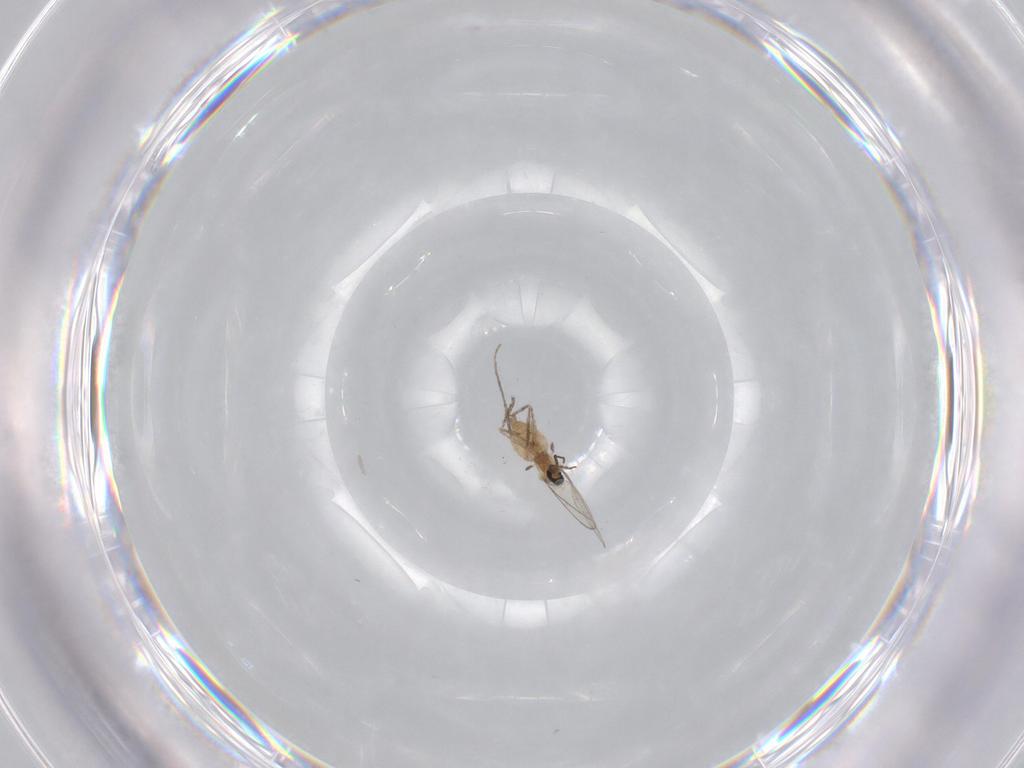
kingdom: Animalia
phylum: Arthropoda
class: Insecta
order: Diptera
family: Cecidomyiidae
